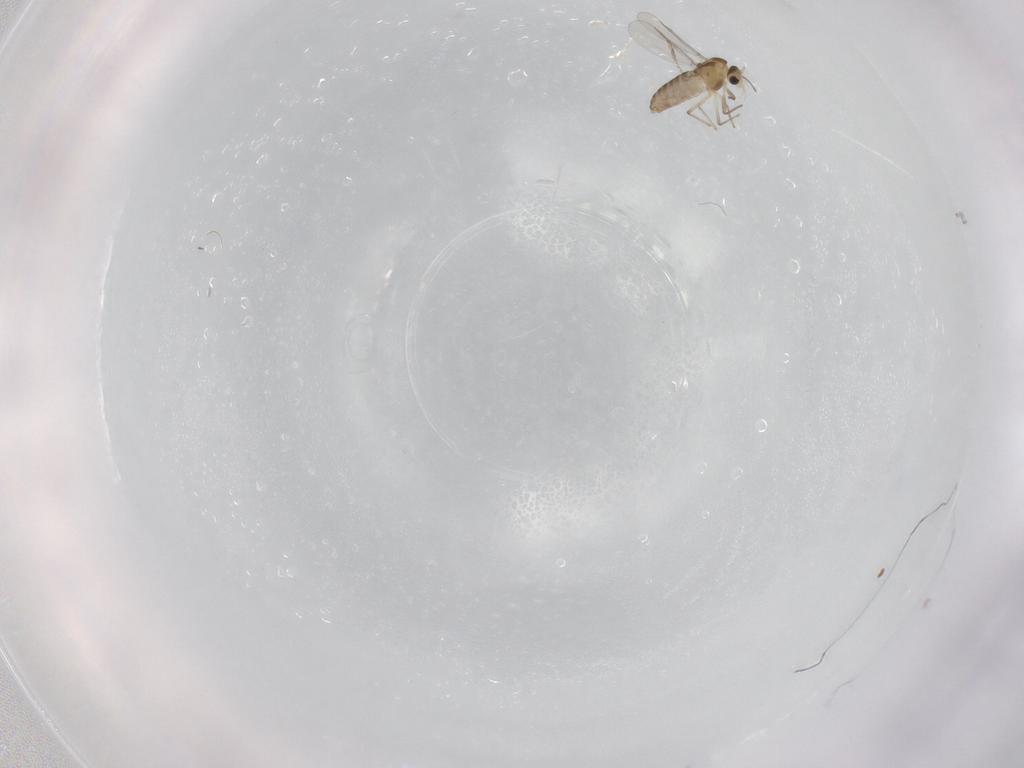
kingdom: Animalia
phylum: Arthropoda
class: Insecta
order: Diptera
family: Chironomidae
